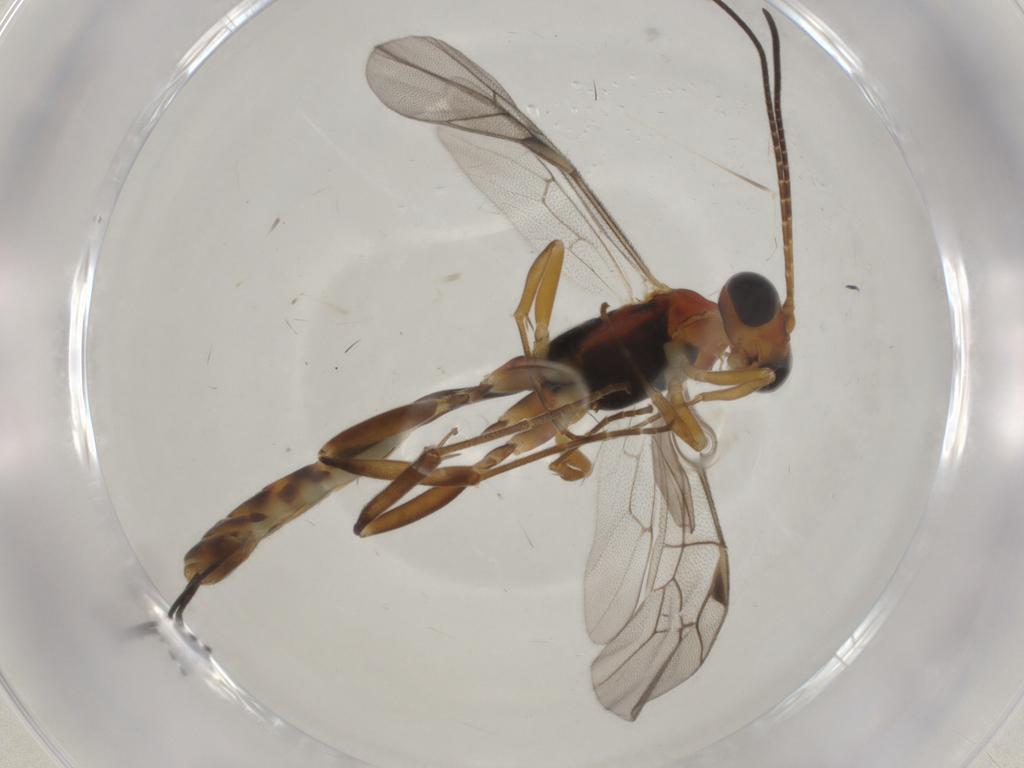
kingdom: Animalia
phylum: Arthropoda
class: Insecta
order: Hymenoptera
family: Ichneumonidae
